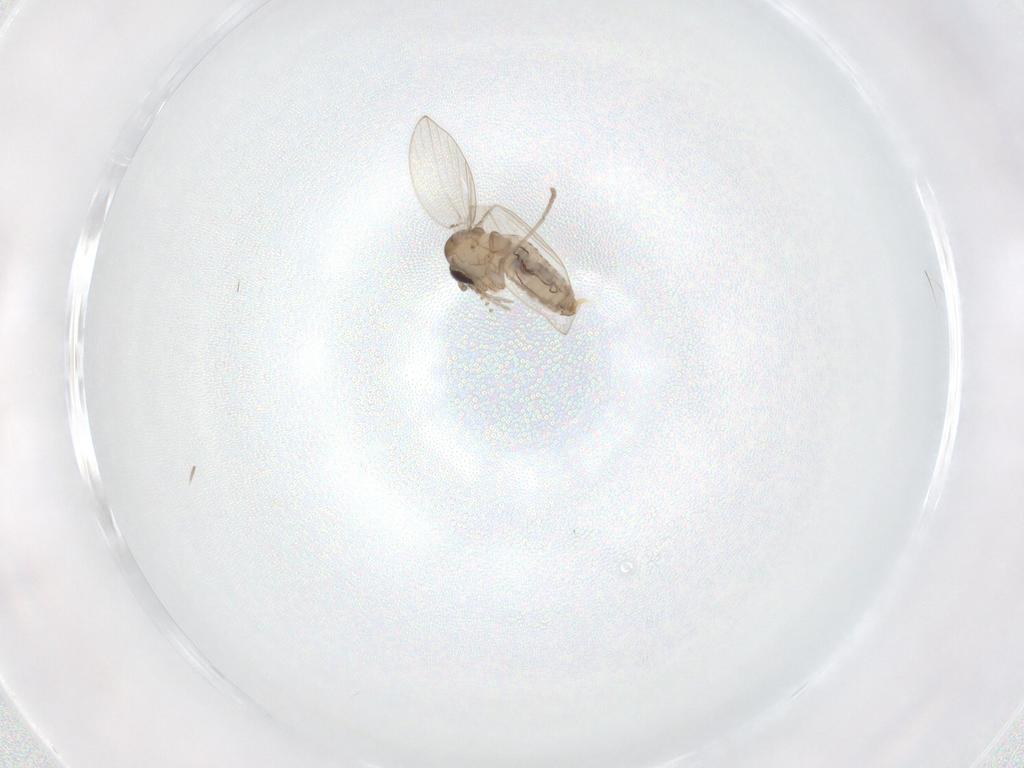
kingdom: Animalia
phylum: Arthropoda
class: Insecta
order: Diptera
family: Psychodidae
